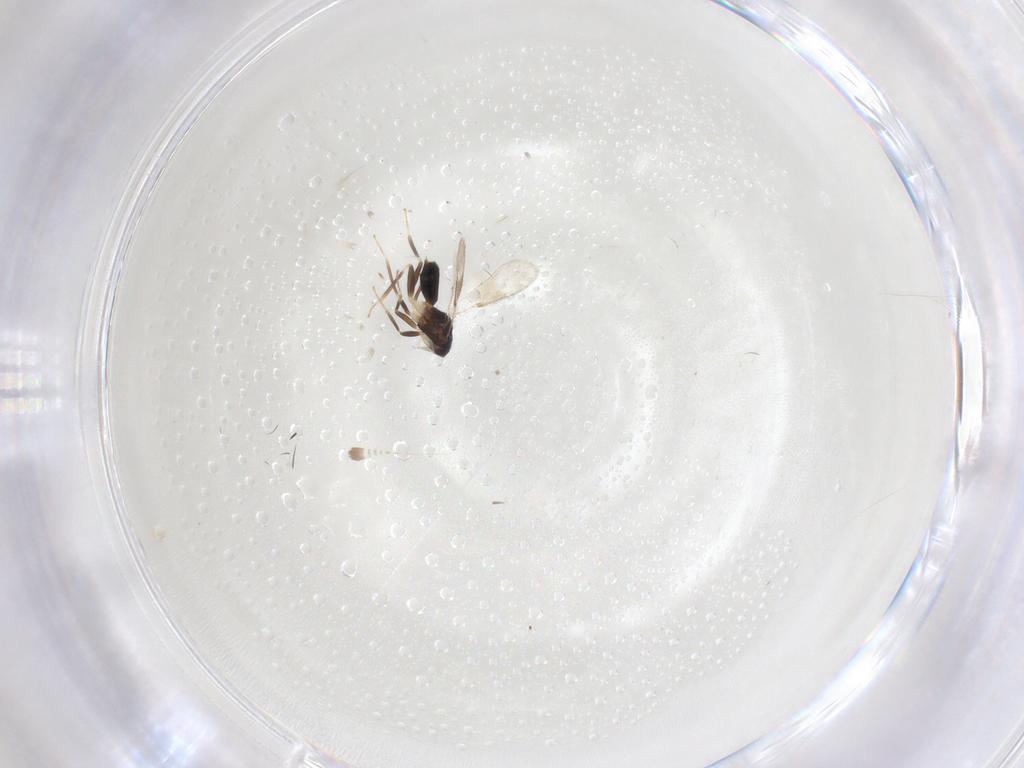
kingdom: Animalia
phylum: Arthropoda
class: Insecta
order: Hymenoptera
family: Eulophidae
